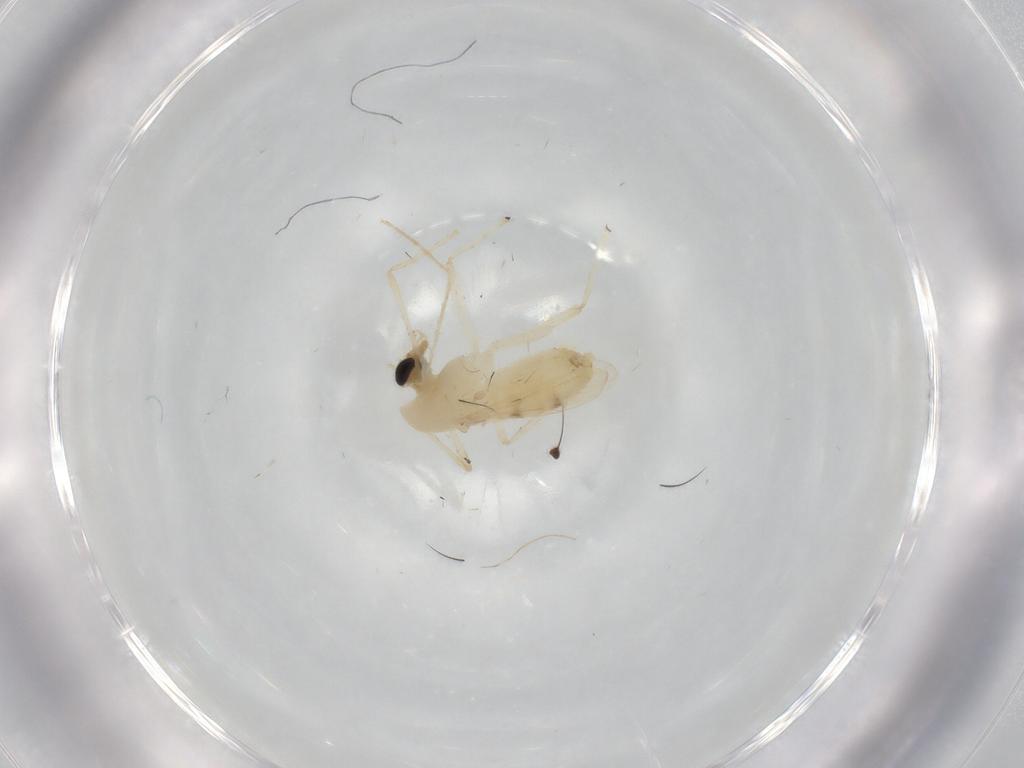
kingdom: Animalia
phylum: Arthropoda
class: Insecta
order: Diptera
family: Chironomidae
